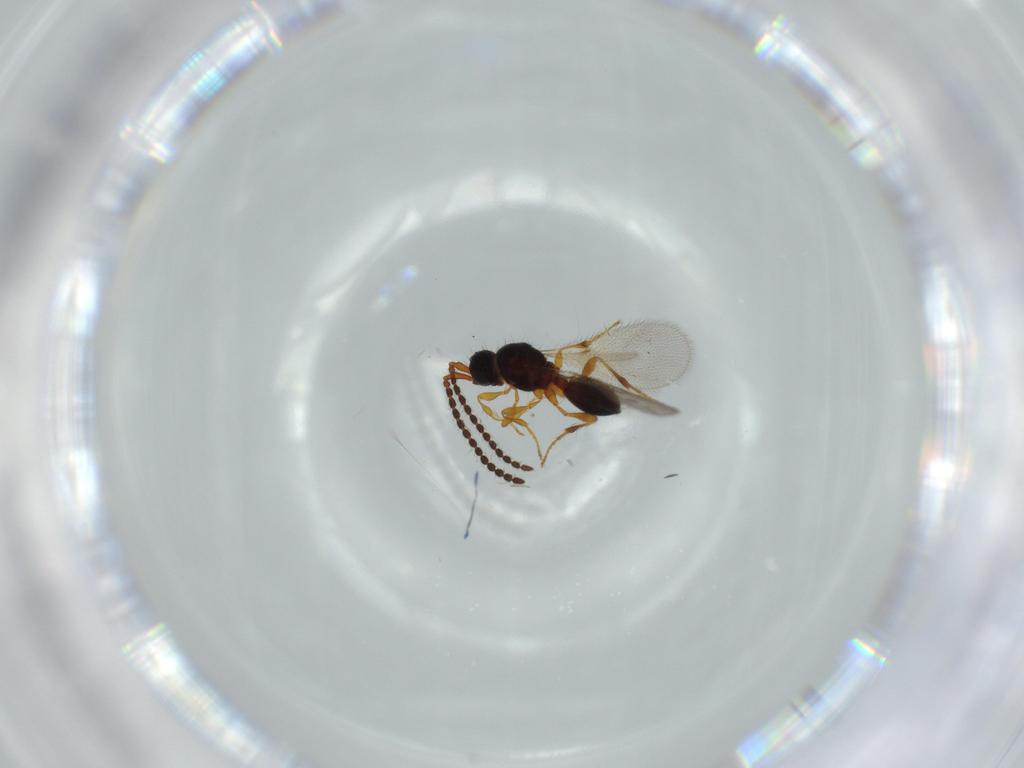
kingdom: Animalia
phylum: Arthropoda
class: Insecta
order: Hymenoptera
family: Diapriidae
